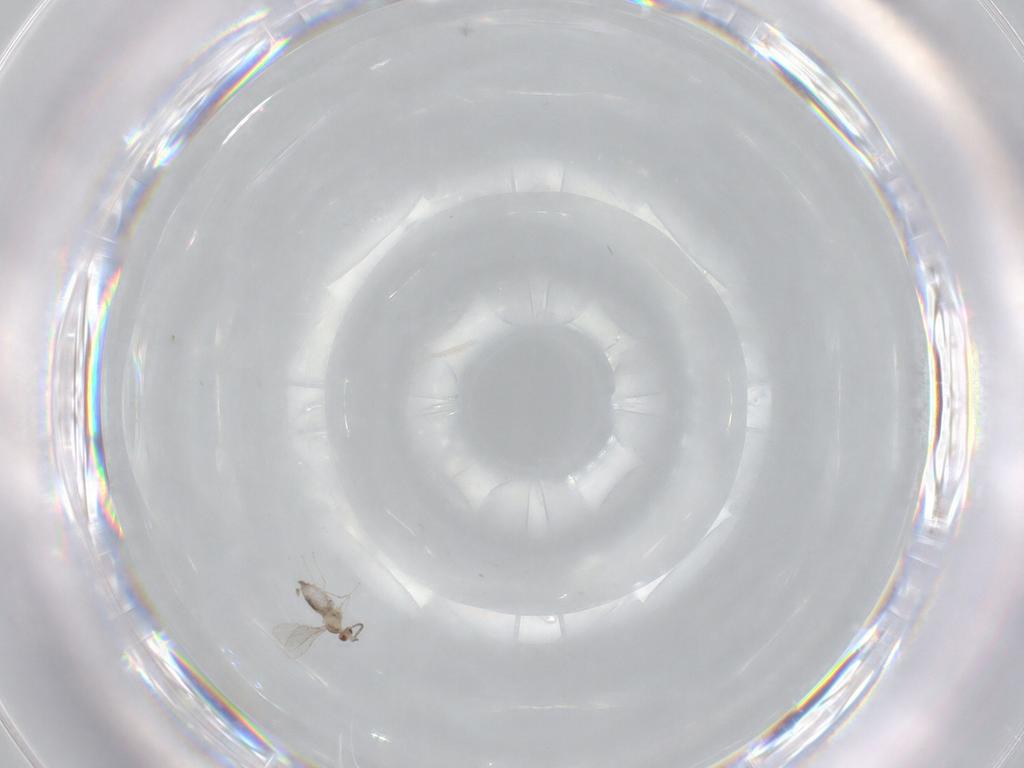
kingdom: Animalia
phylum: Arthropoda
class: Insecta
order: Diptera
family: Cecidomyiidae
